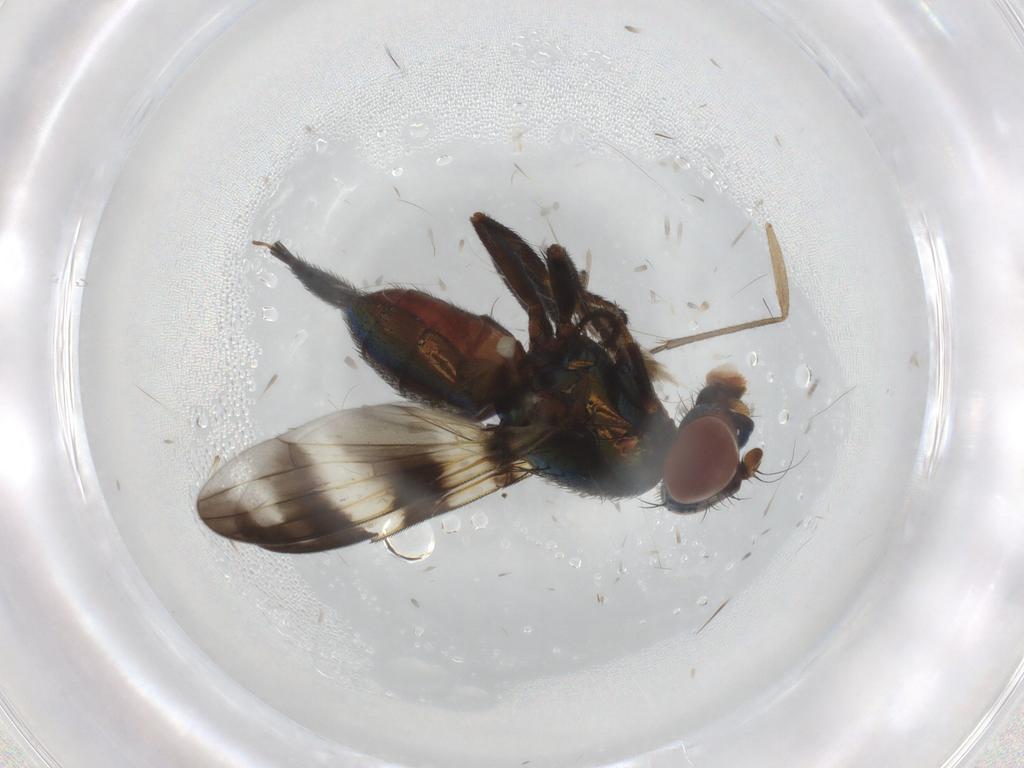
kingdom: Animalia
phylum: Arthropoda
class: Insecta
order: Diptera
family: Ulidiidae
